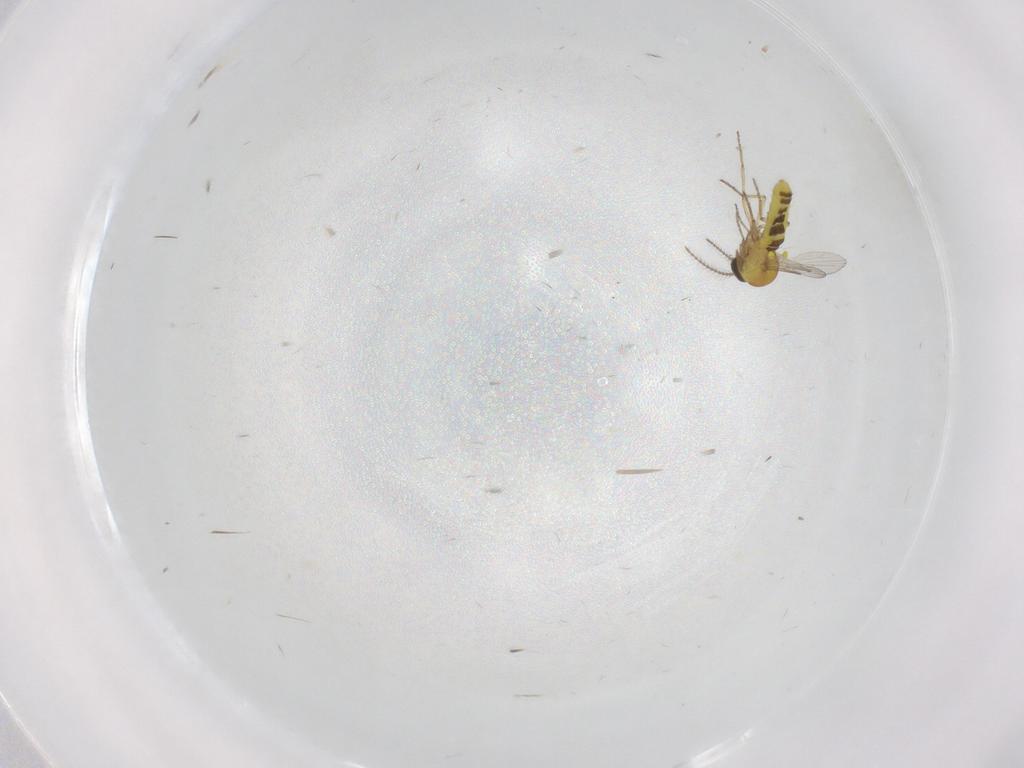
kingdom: Animalia
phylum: Arthropoda
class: Insecta
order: Diptera
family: Ceratopogonidae
